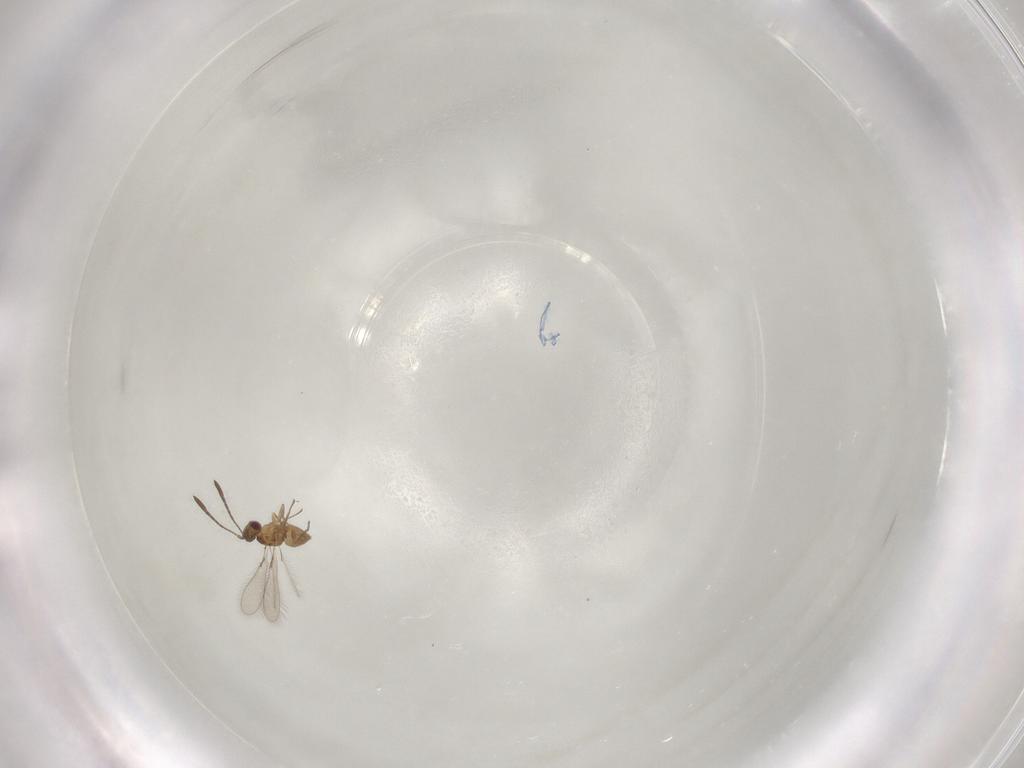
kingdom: Animalia
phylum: Arthropoda
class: Insecta
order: Hymenoptera
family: Mymaridae
